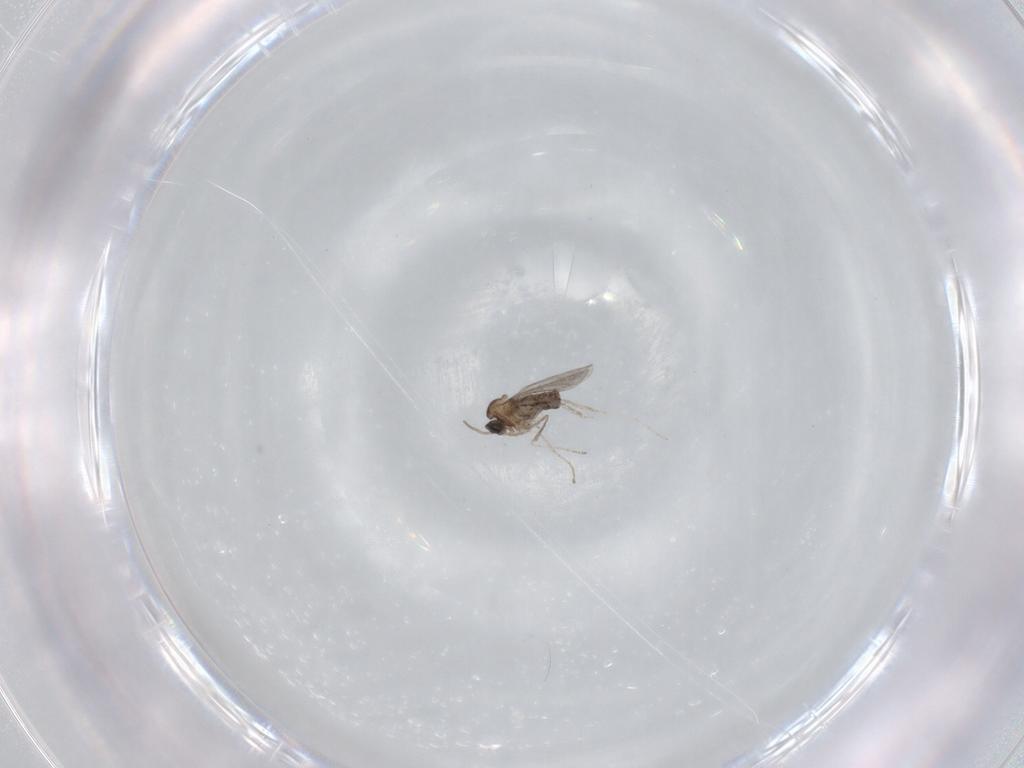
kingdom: Animalia
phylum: Arthropoda
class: Insecta
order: Diptera
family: Cecidomyiidae
